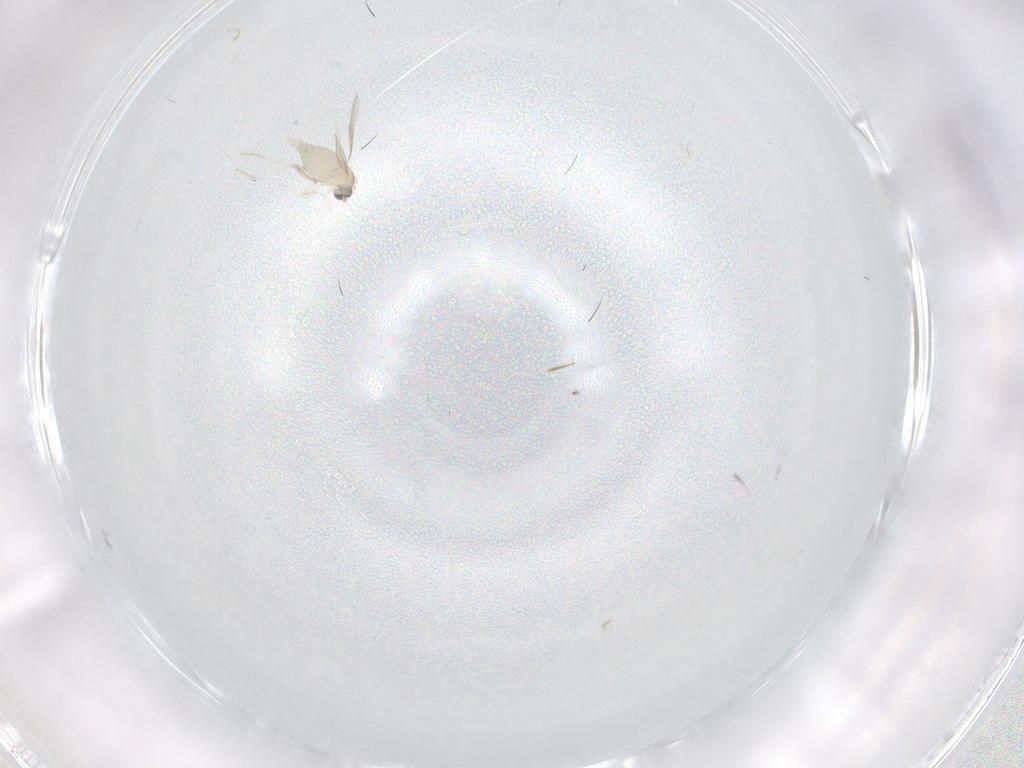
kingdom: Animalia
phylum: Arthropoda
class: Insecta
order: Diptera
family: Cecidomyiidae
